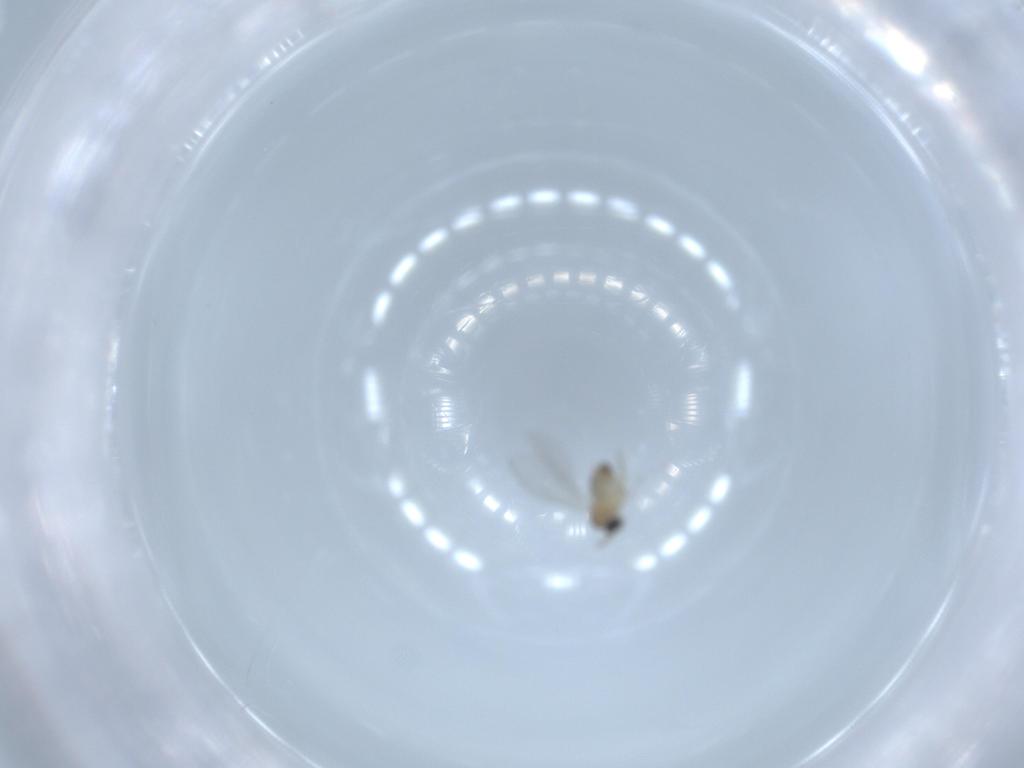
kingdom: Animalia
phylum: Arthropoda
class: Insecta
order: Diptera
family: Cecidomyiidae
